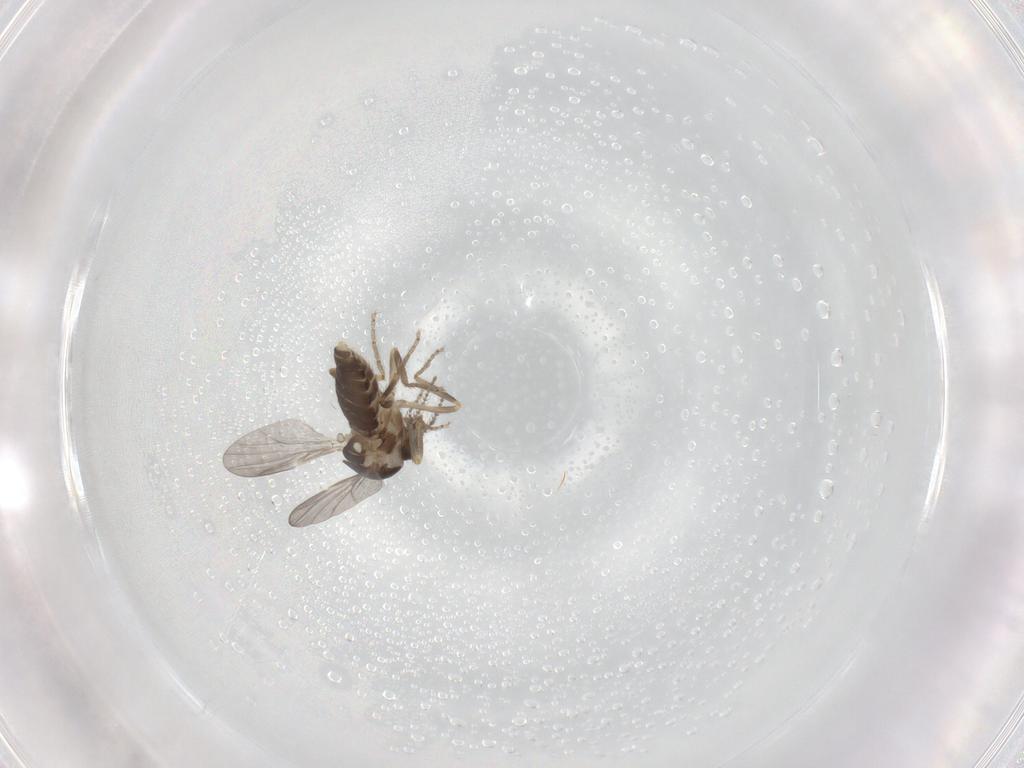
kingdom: Animalia
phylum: Arthropoda
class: Insecta
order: Diptera
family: Ceratopogonidae
